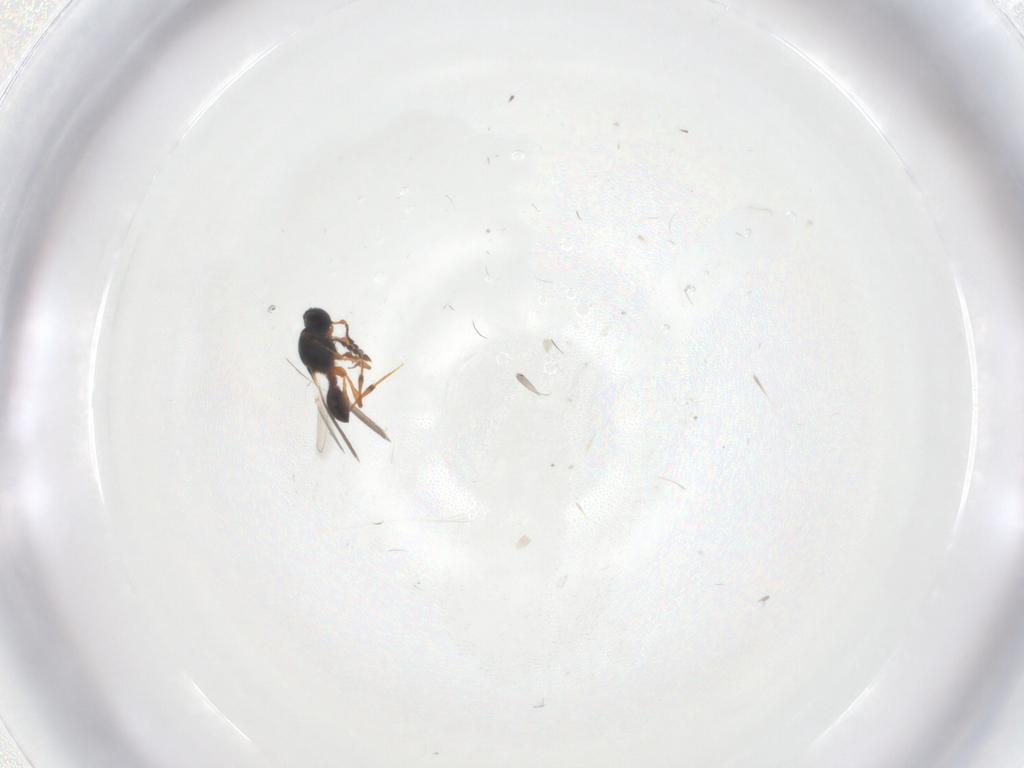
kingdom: Animalia
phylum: Arthropoda
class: Insecta
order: Hymenoptera
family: Platygastridae
